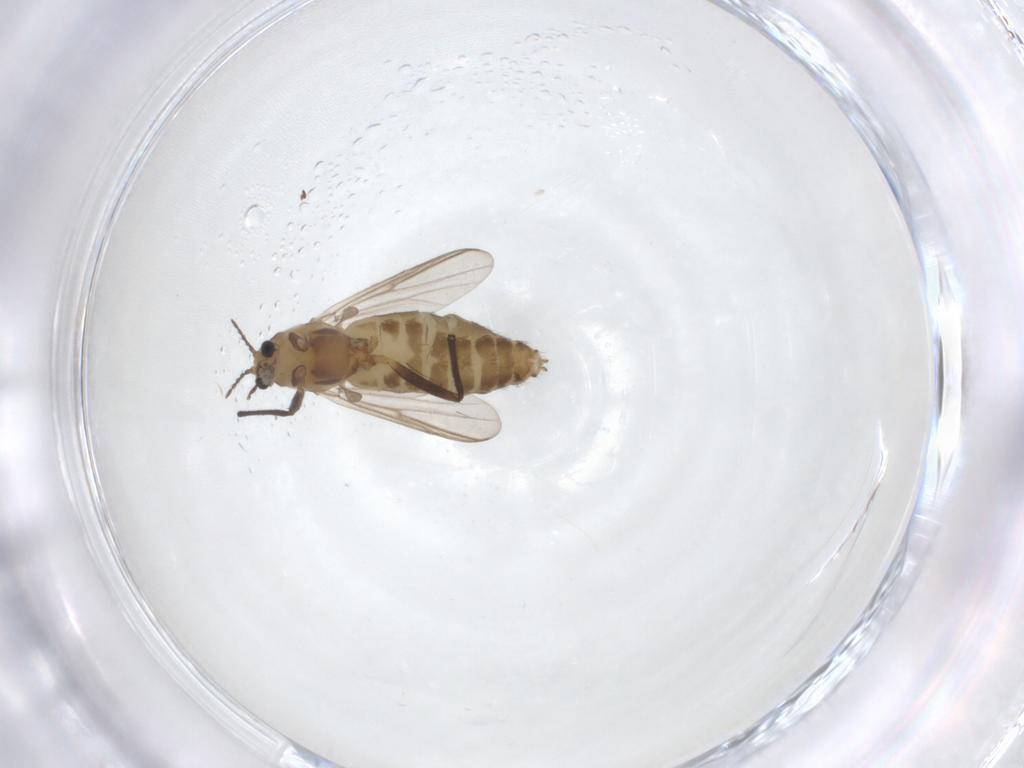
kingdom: Animalia
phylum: Arthropoda
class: Insecta
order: Diptera
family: Chironomidae
